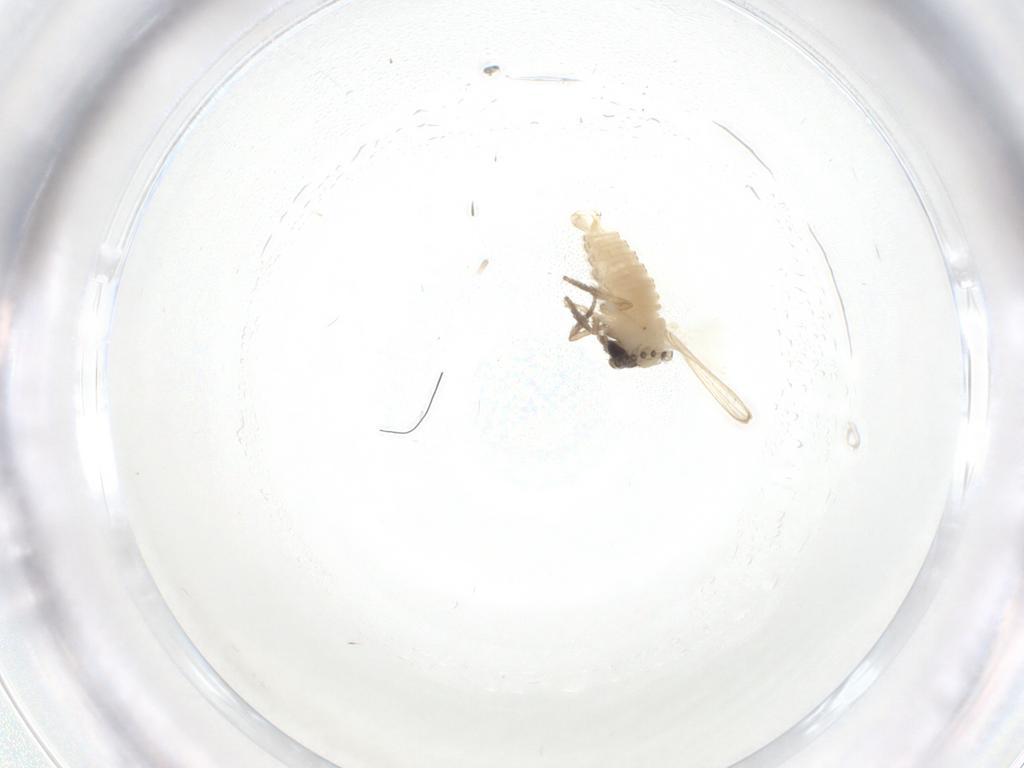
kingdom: Animalia
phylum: Arthropoda
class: Insecta
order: Diptera
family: Psychodidae
